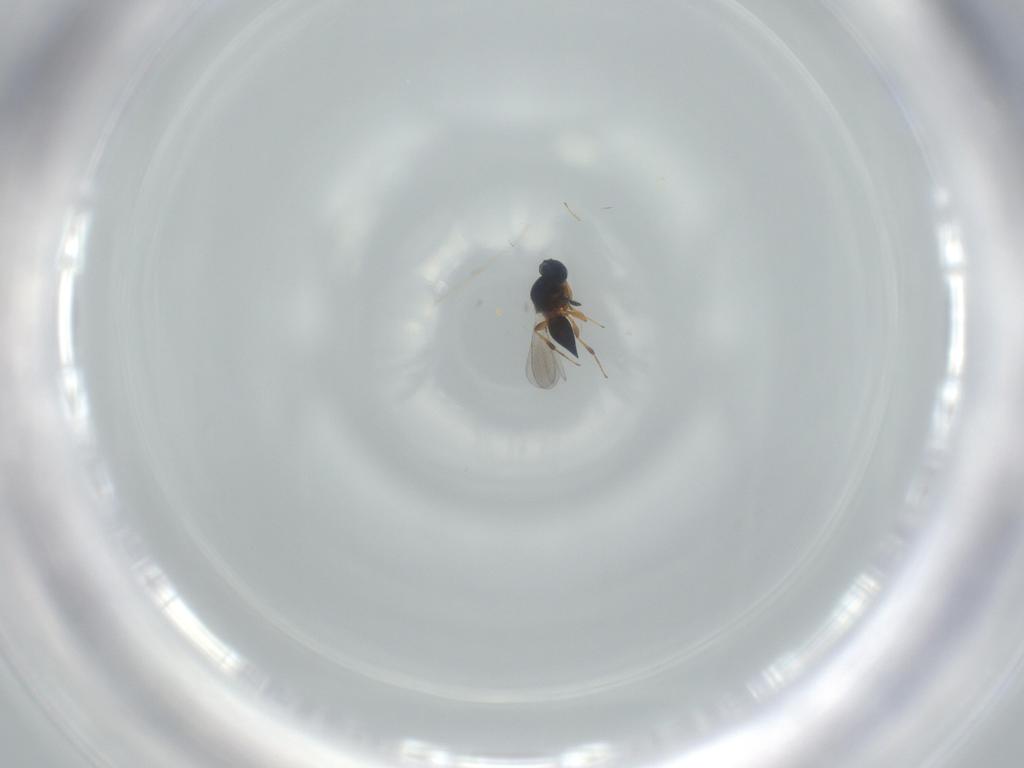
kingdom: Animalia
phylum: Arthropoda
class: Insecta
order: Hymenoptera
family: Platygastridae
